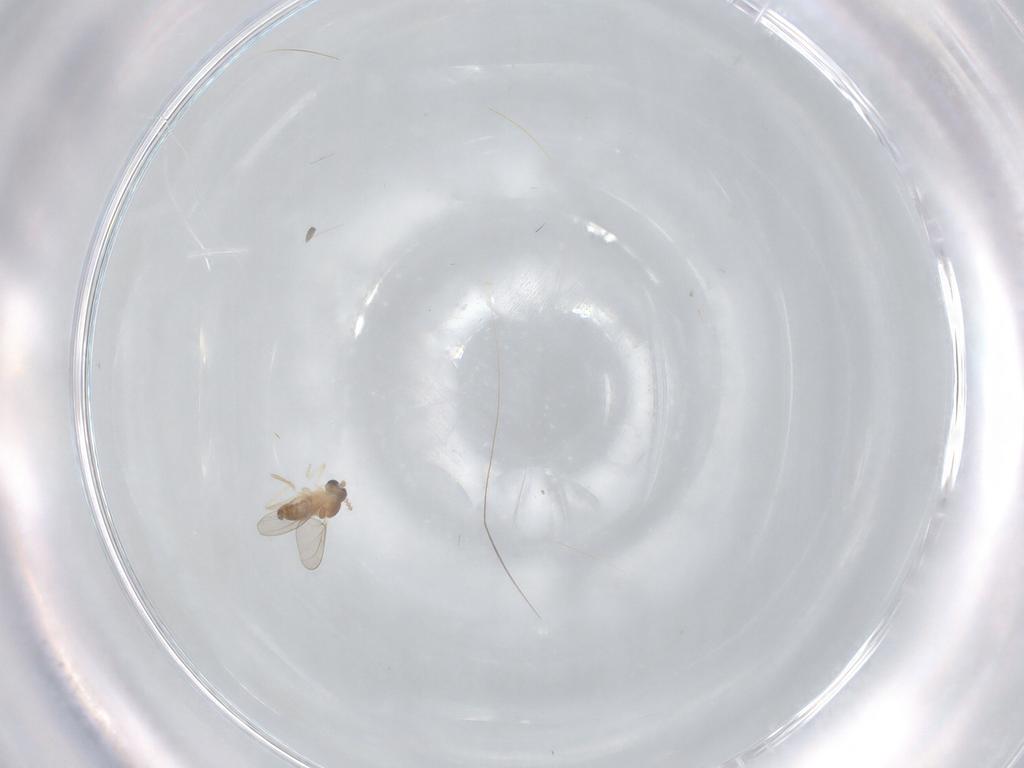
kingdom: Animalia
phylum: Arthropoda
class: Insecta
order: Diptera
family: Cecidomyiidae
